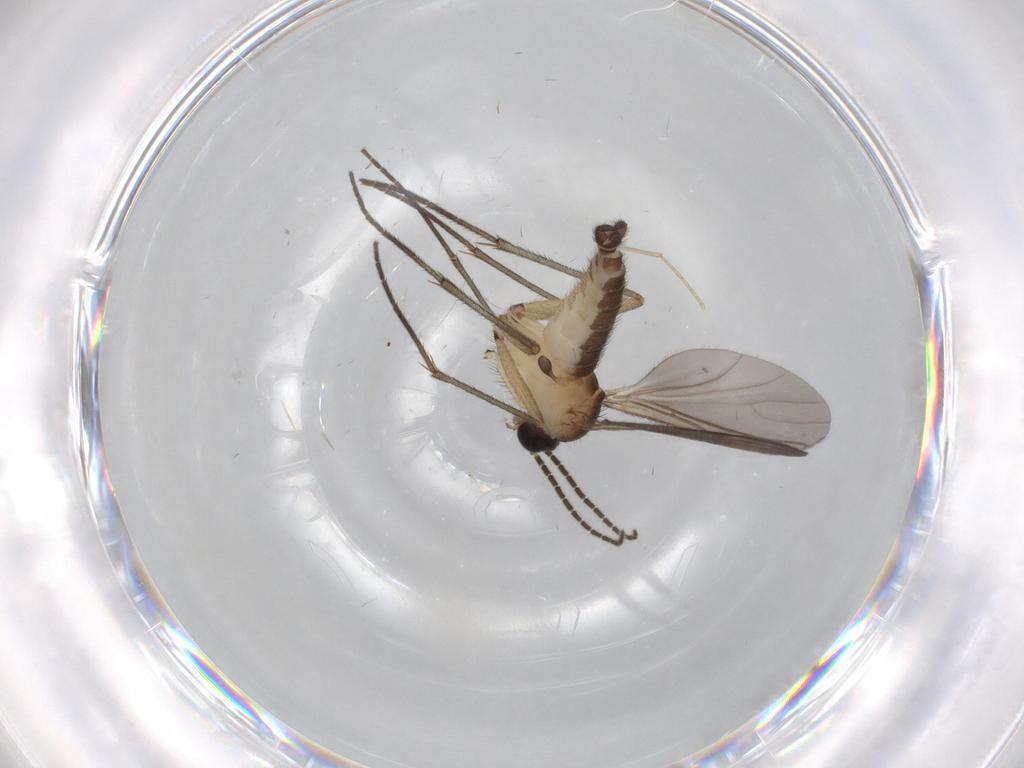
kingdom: Animalia
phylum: Arthropoda
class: Insecta
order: Diptera
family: Sciaridae
